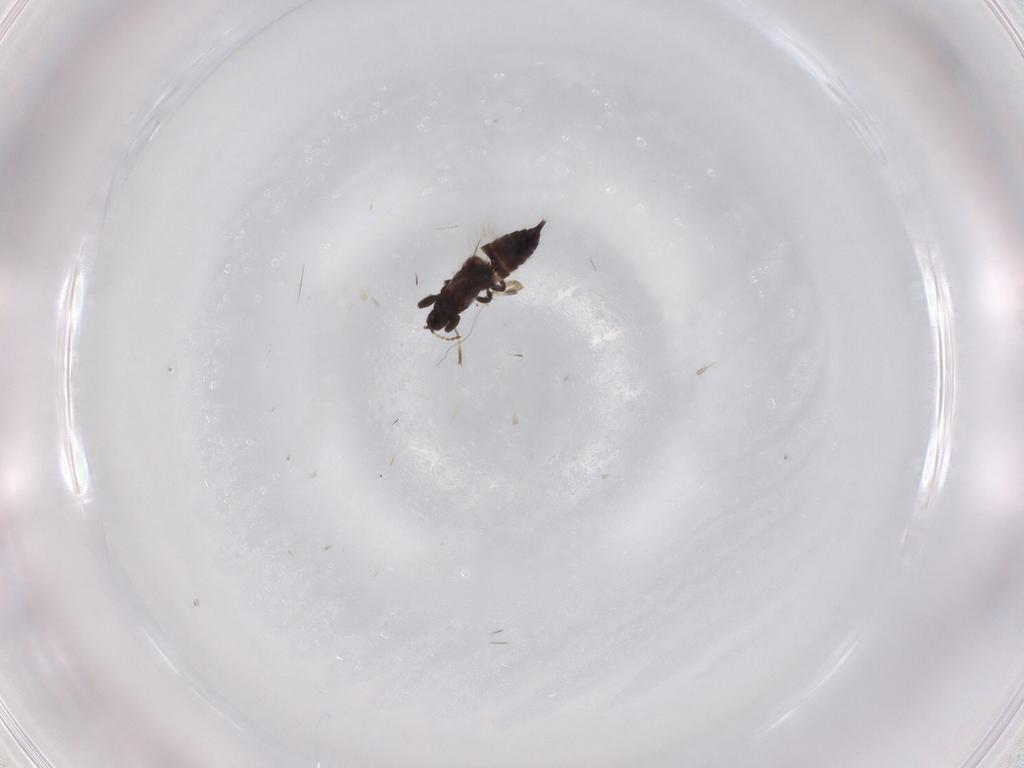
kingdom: Animalia
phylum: Arthropoda
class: Insecta
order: Thysanoptera
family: Phlaeothripidae
